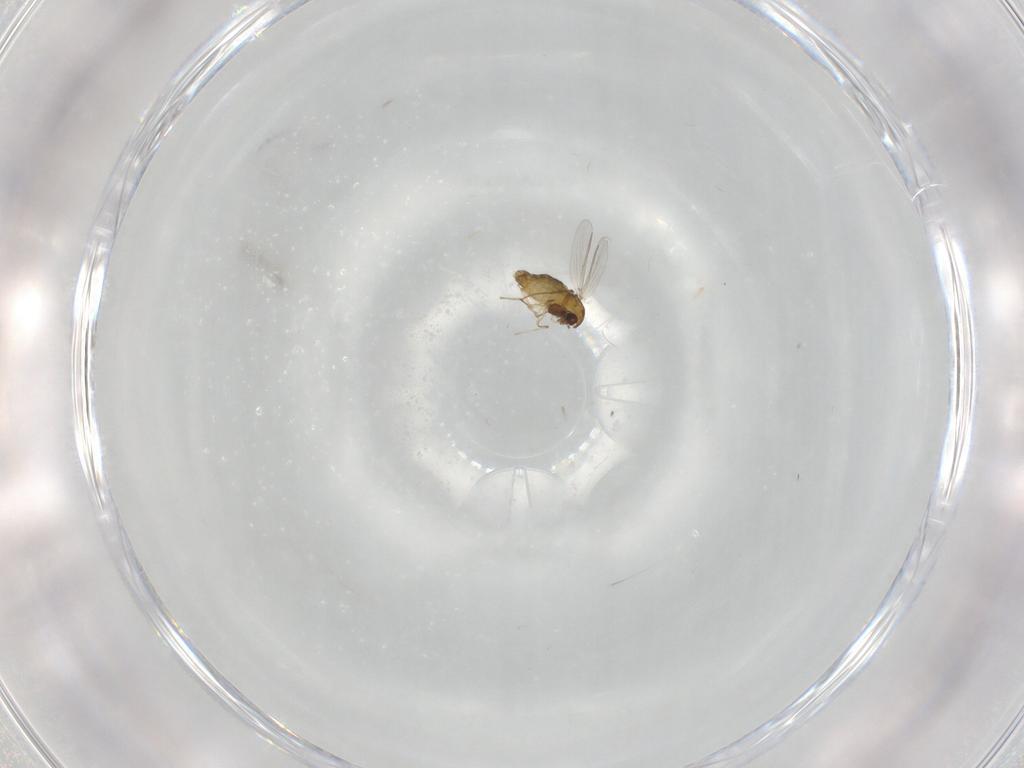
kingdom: Animalia
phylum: Arthropoda
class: Insecta
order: Diptera
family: Chironomidae
